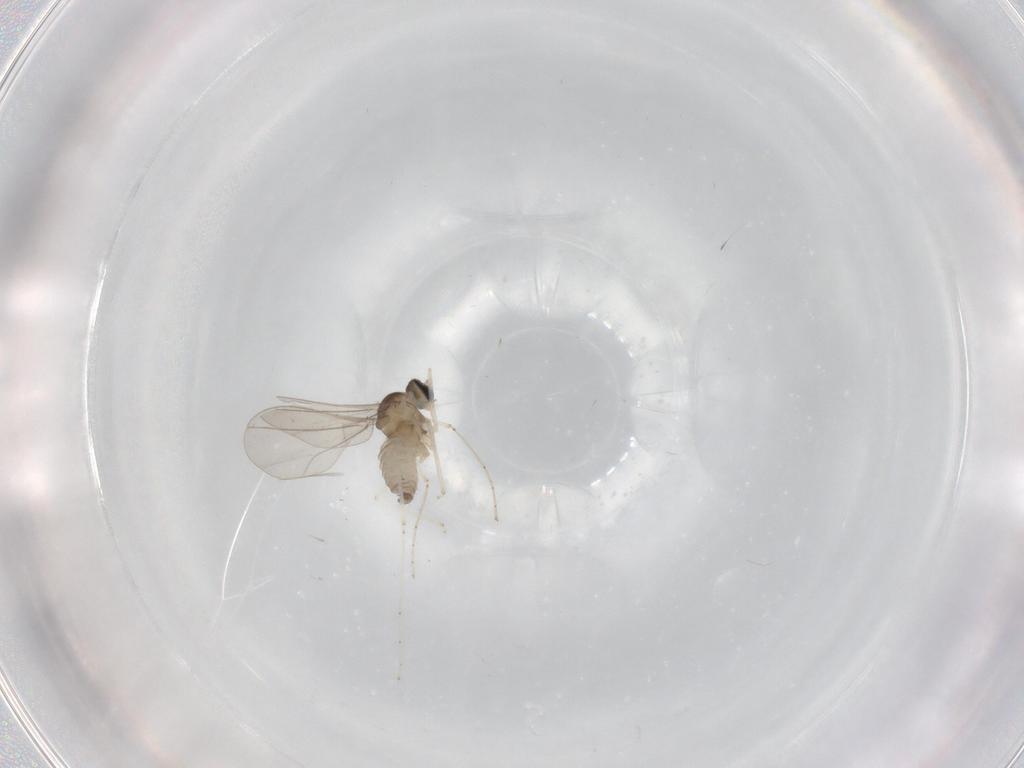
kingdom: Animalia
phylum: Arthropoda
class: Insecta
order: Diptera
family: Cecidomyiidae
